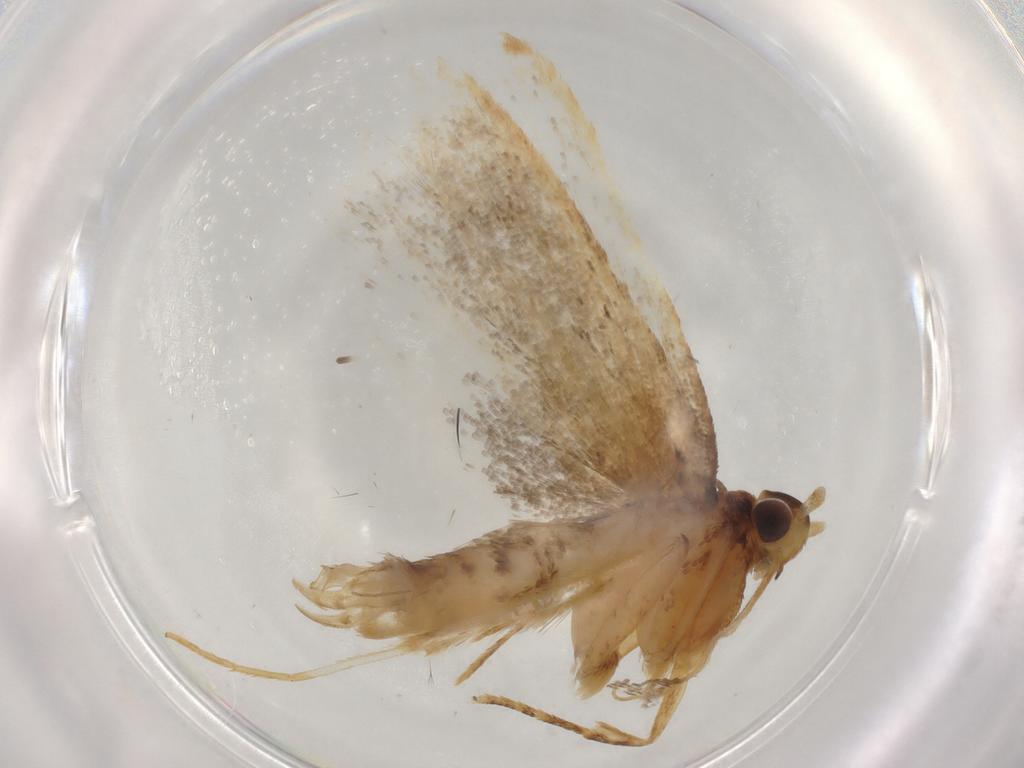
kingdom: Animalia
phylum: Arthropoda
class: Insecta
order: Lepidoptera
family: Lecithoceridae
